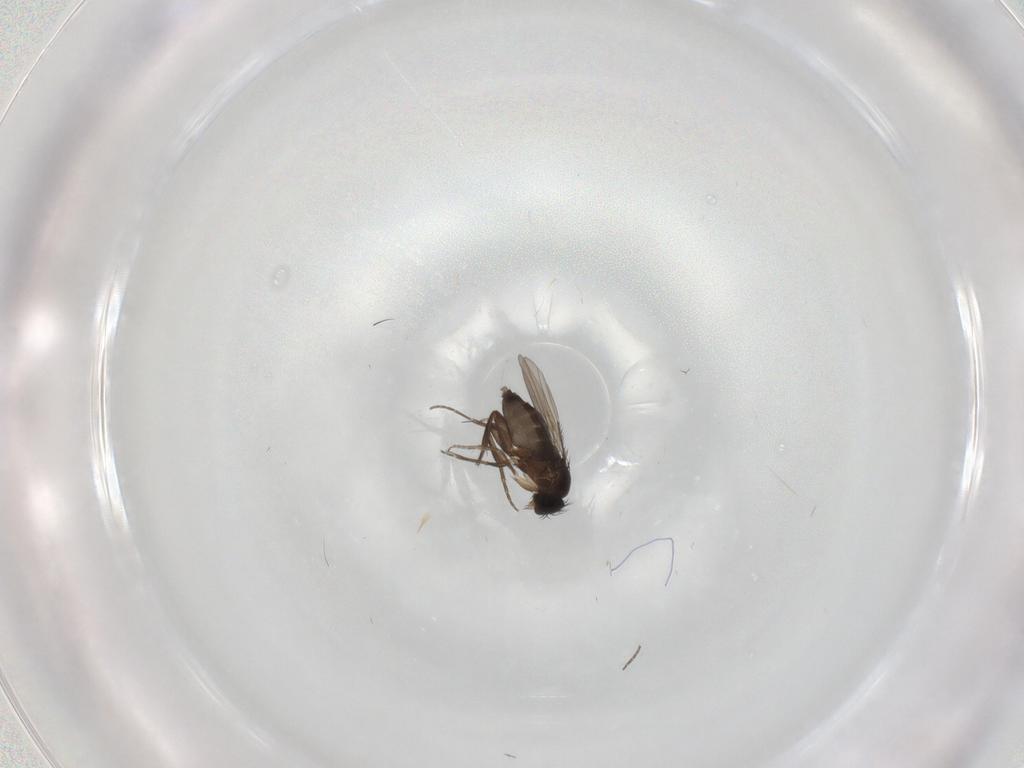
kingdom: Animalia
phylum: Arthropoda
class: Insecta
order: Diptera
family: Phoridae
